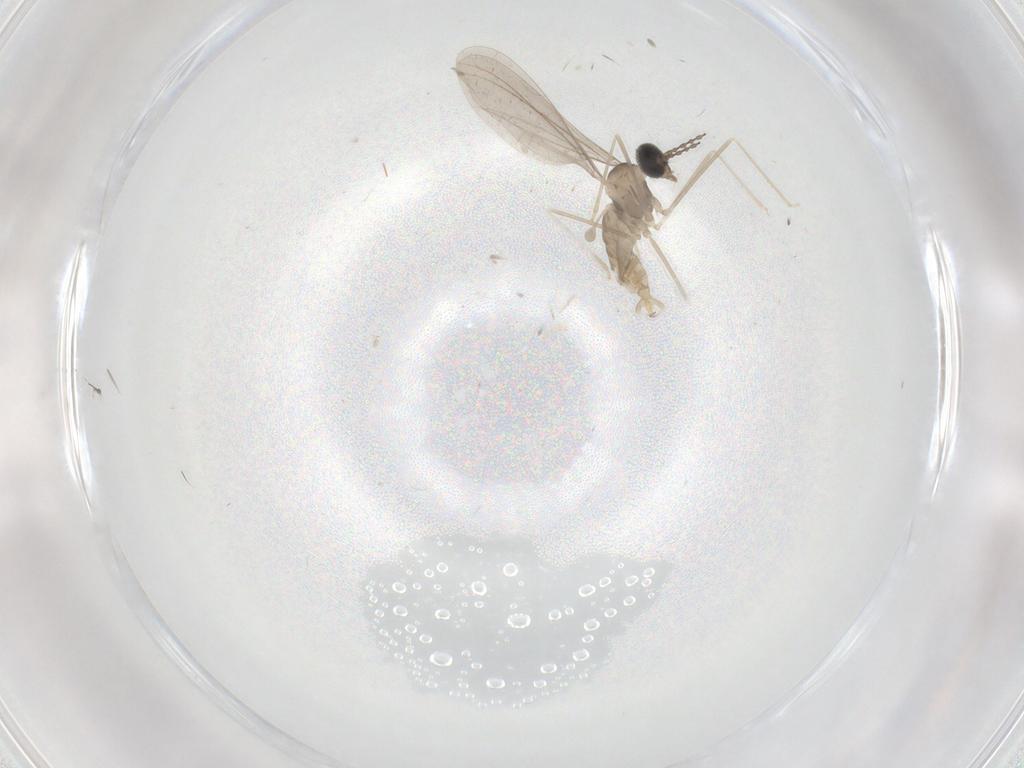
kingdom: Animalia
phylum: Arthropoda
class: Insecta
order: Diptera
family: Cecidomyiidae
